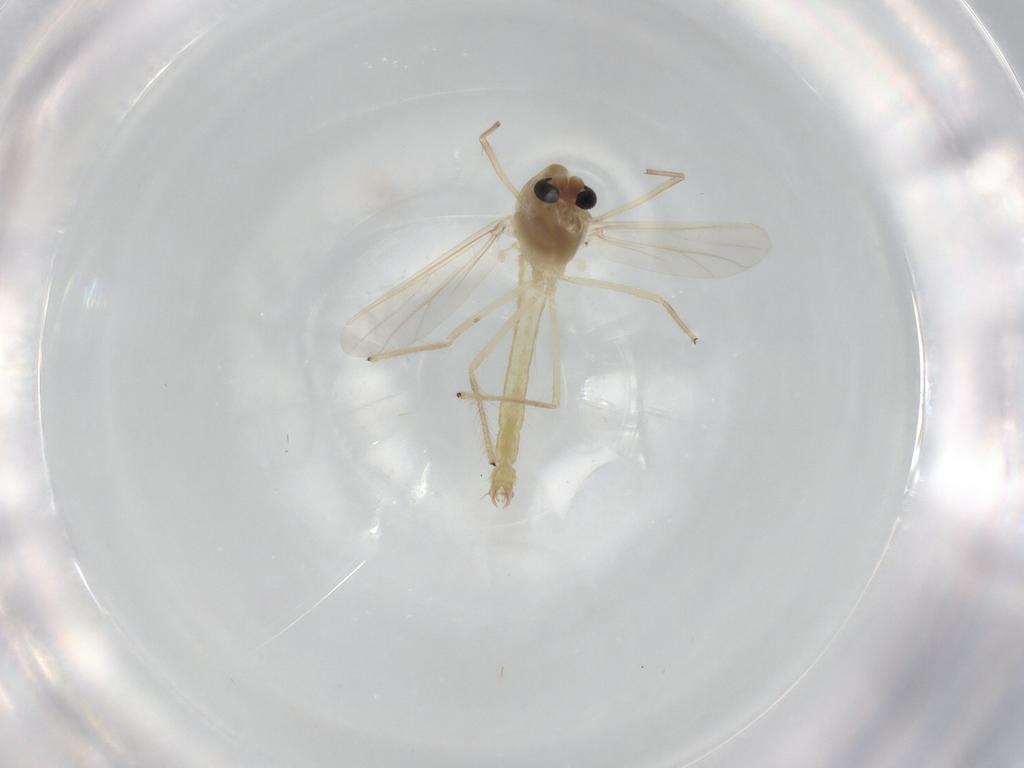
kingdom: Animalia
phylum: Arthropoda
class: Insecta
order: Diptera
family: Chironomidae
